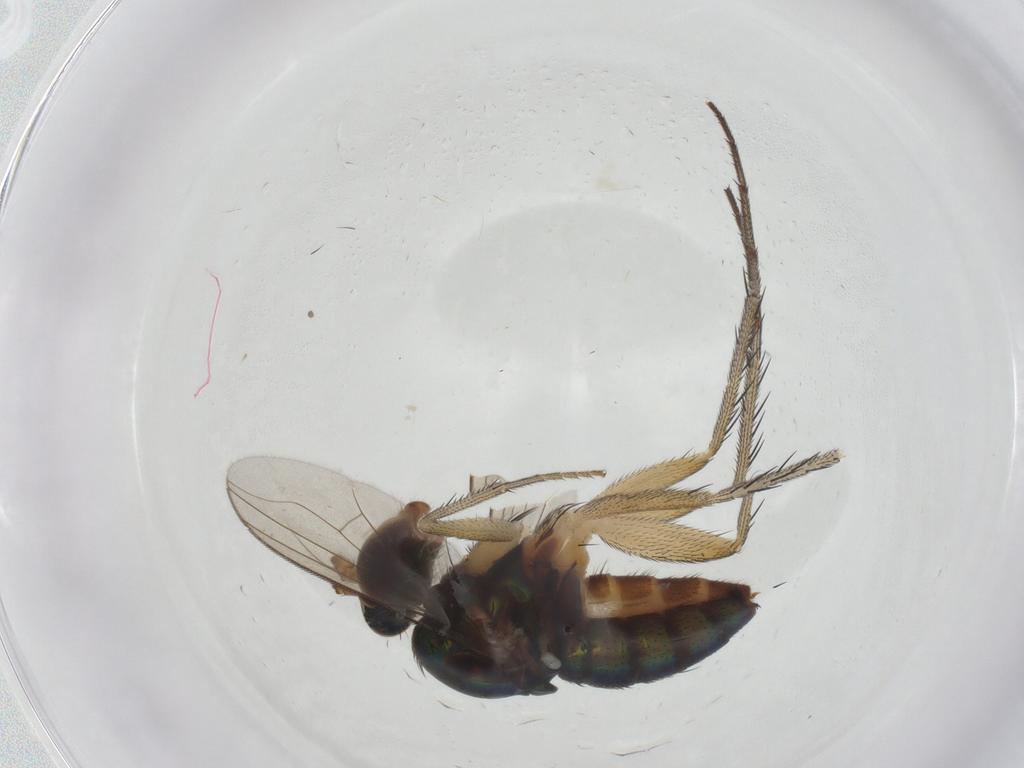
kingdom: Animalia
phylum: Arthropoda
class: Insecta
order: Diptera
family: Dolichopodidae
